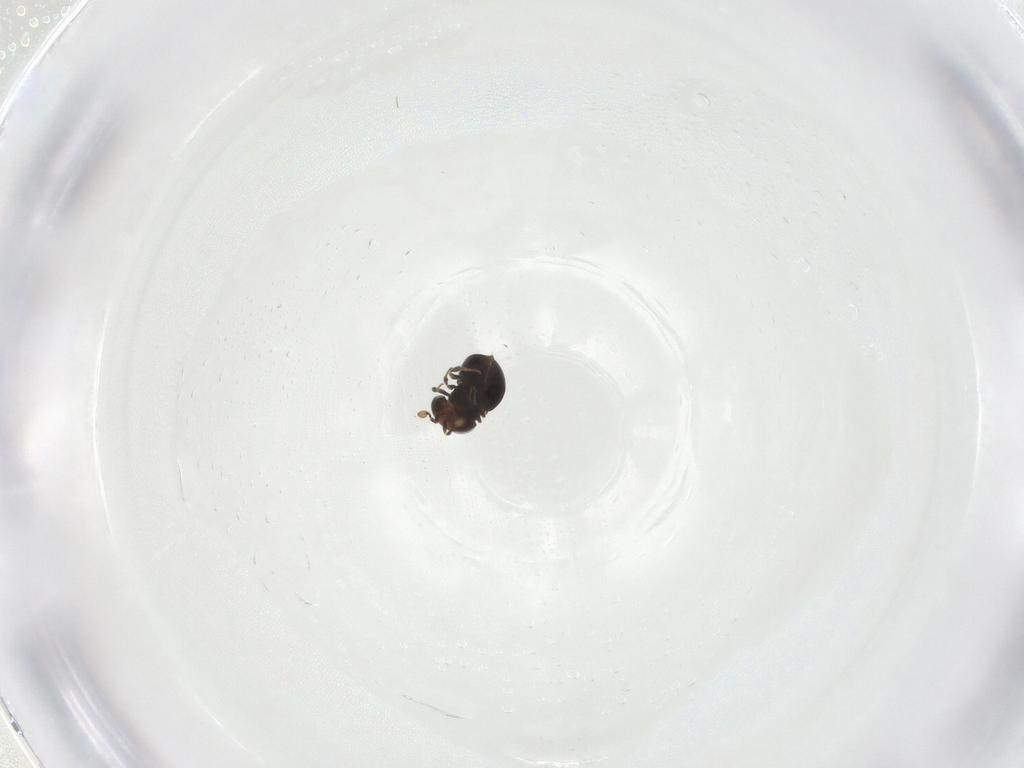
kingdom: Animalia
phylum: Arthropoda
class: Insecta
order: Hymenoptera
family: Scelionidae
